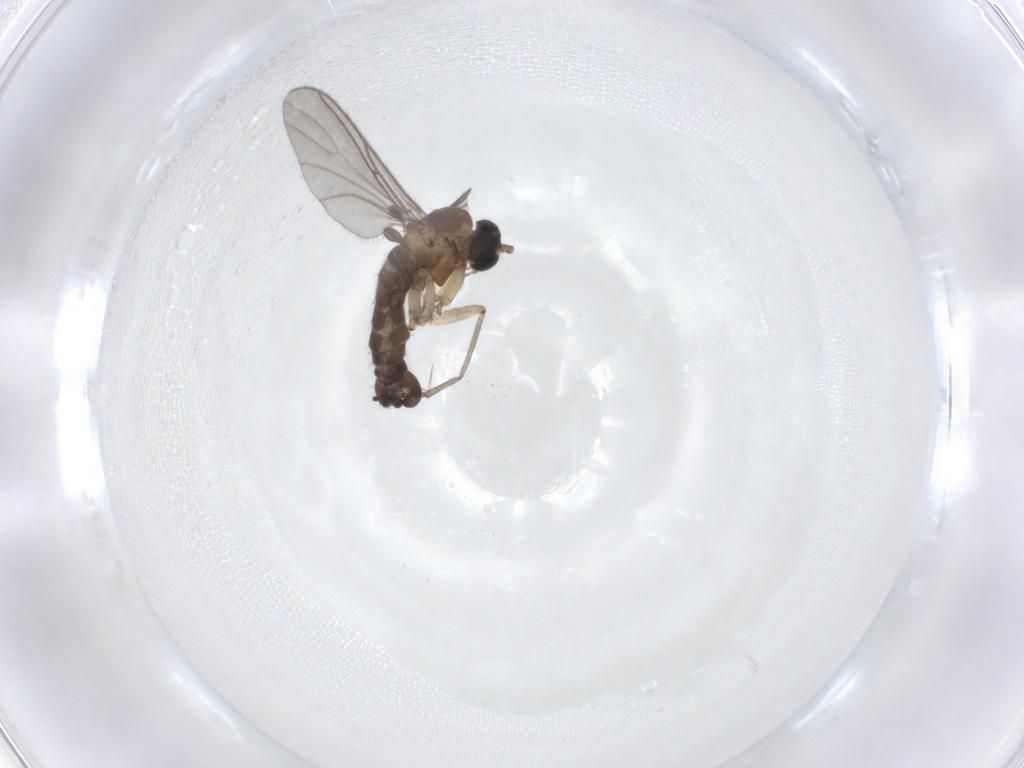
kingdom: Animalia
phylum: Arthropoda
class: Insecta
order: Diptera
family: Sciaridae
